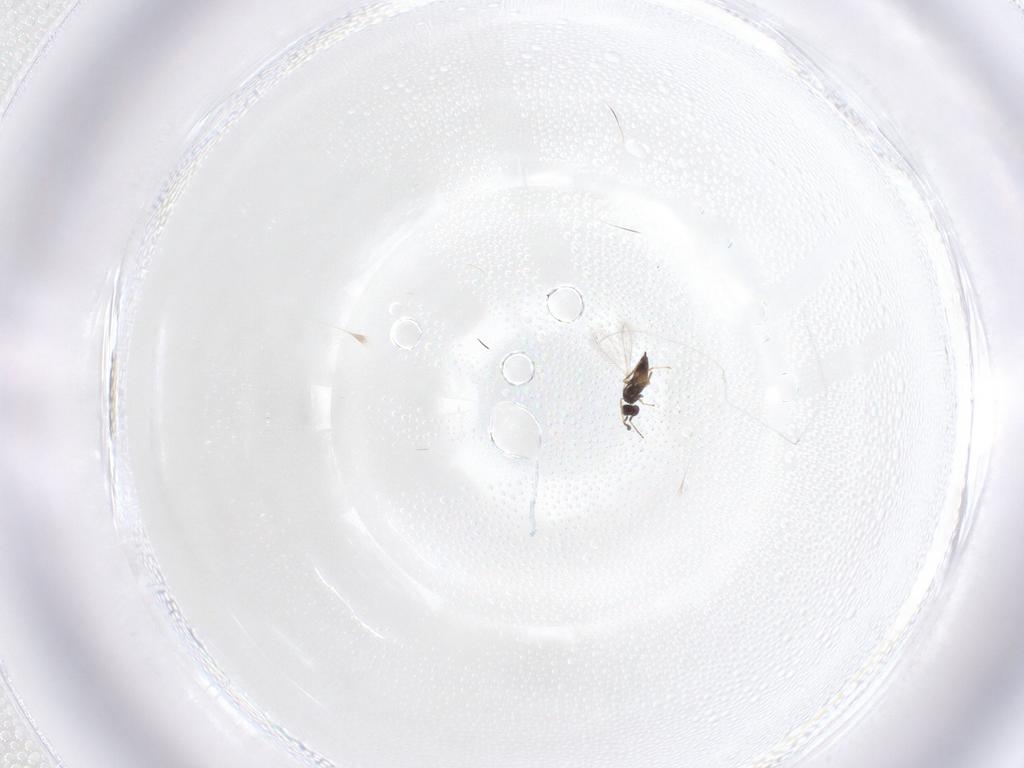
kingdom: Animalia
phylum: Arthropoda
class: Insecta
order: Hymenoptera
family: Mymaridae
